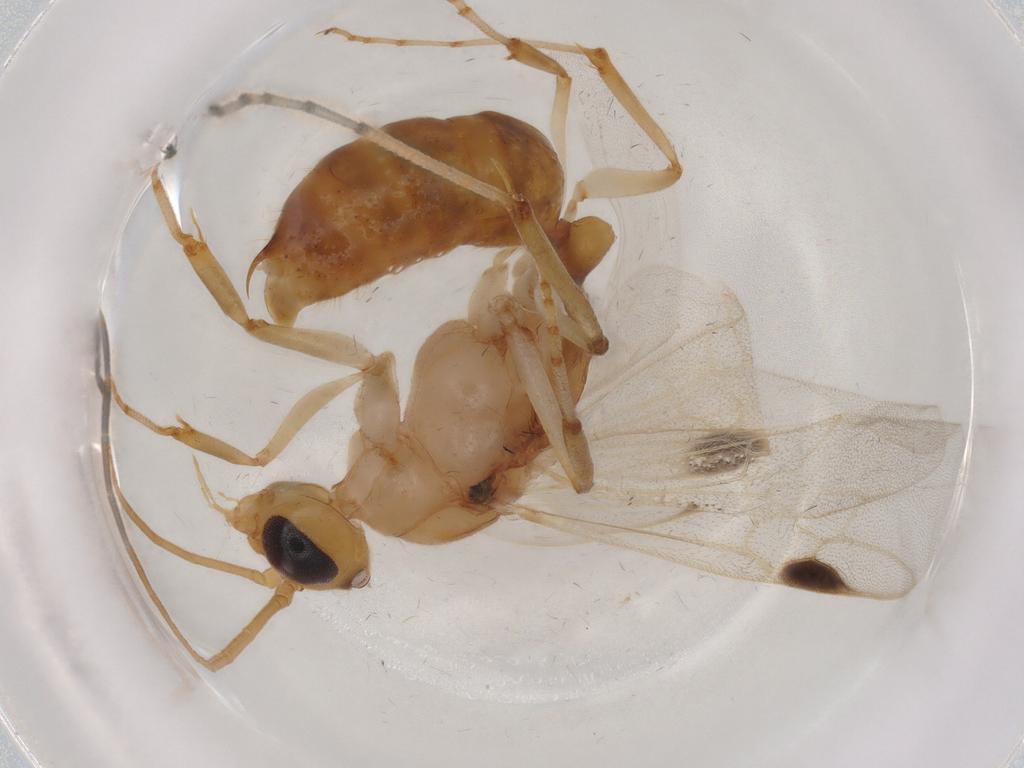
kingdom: Animalia
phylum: Arthropoda
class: Insecta
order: Hymenoptera
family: Formicidae
